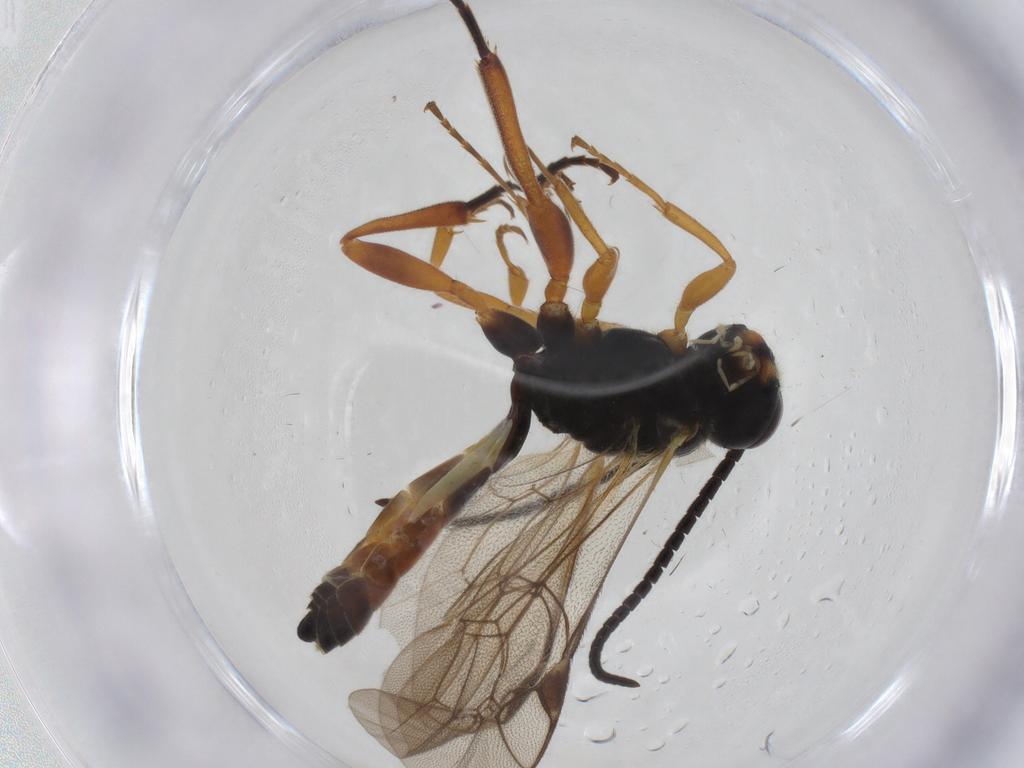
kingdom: Animalia
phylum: Arthropoda
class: Insecta
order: Hymenoptera
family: Ichneumonidae
